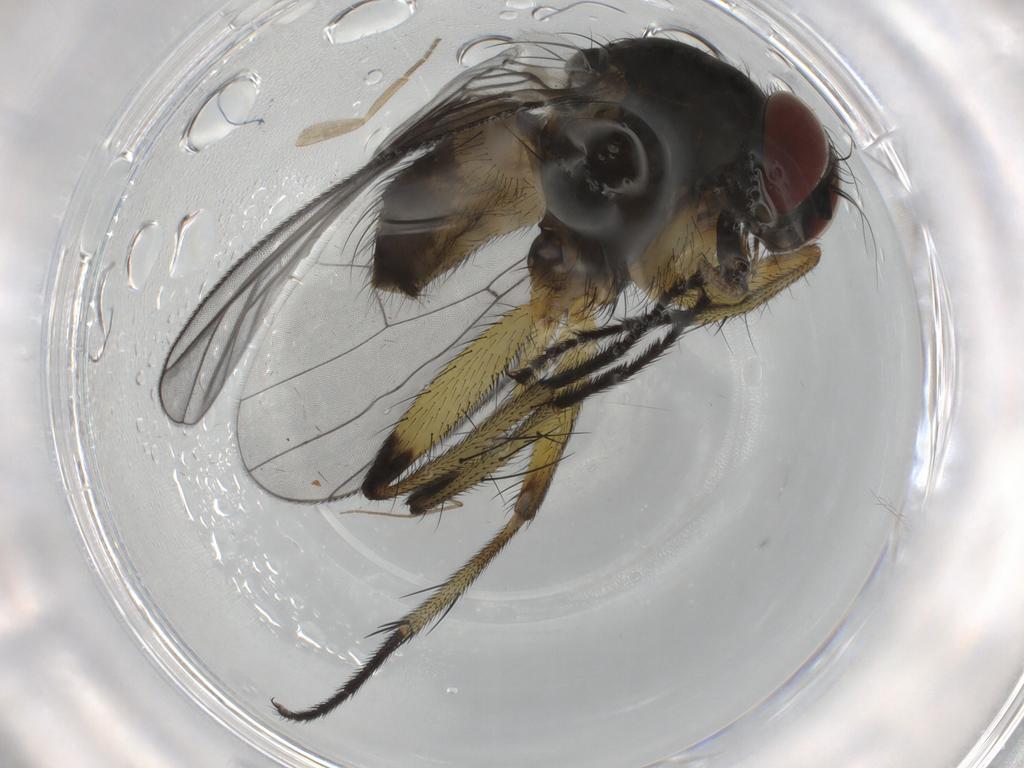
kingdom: Animalia
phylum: Arthropoda
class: Insecta
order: Diptera
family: Muscidae
